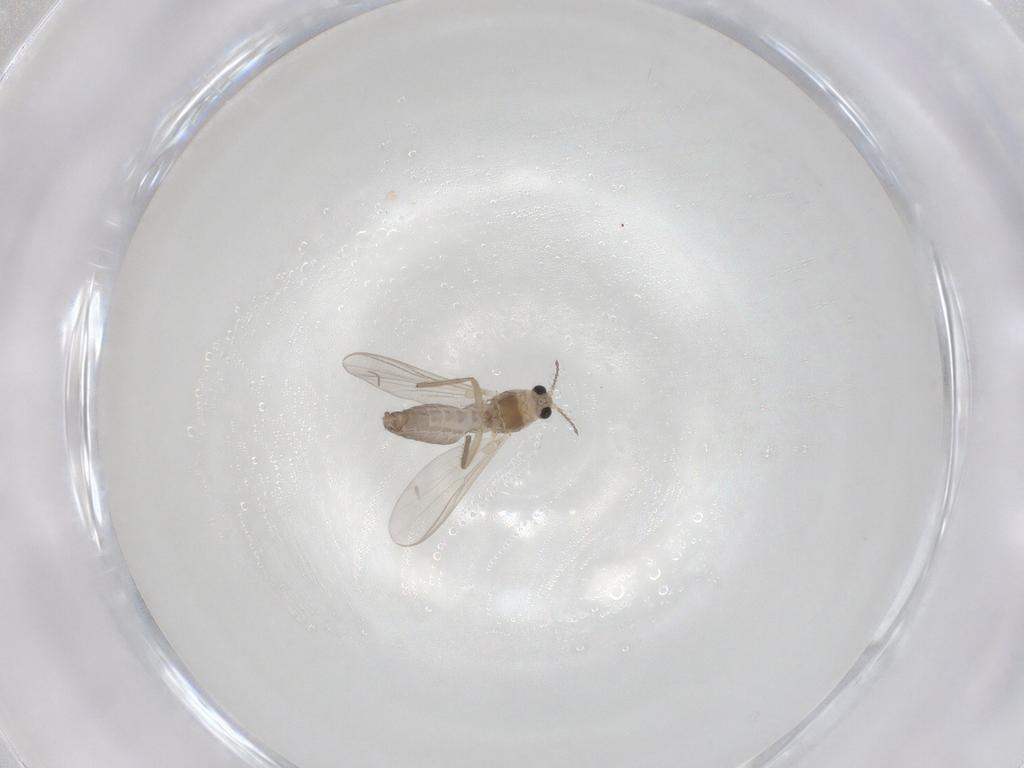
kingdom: Animalia
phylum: Arthropoda
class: Insecta
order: Diptera
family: Chironomidae
